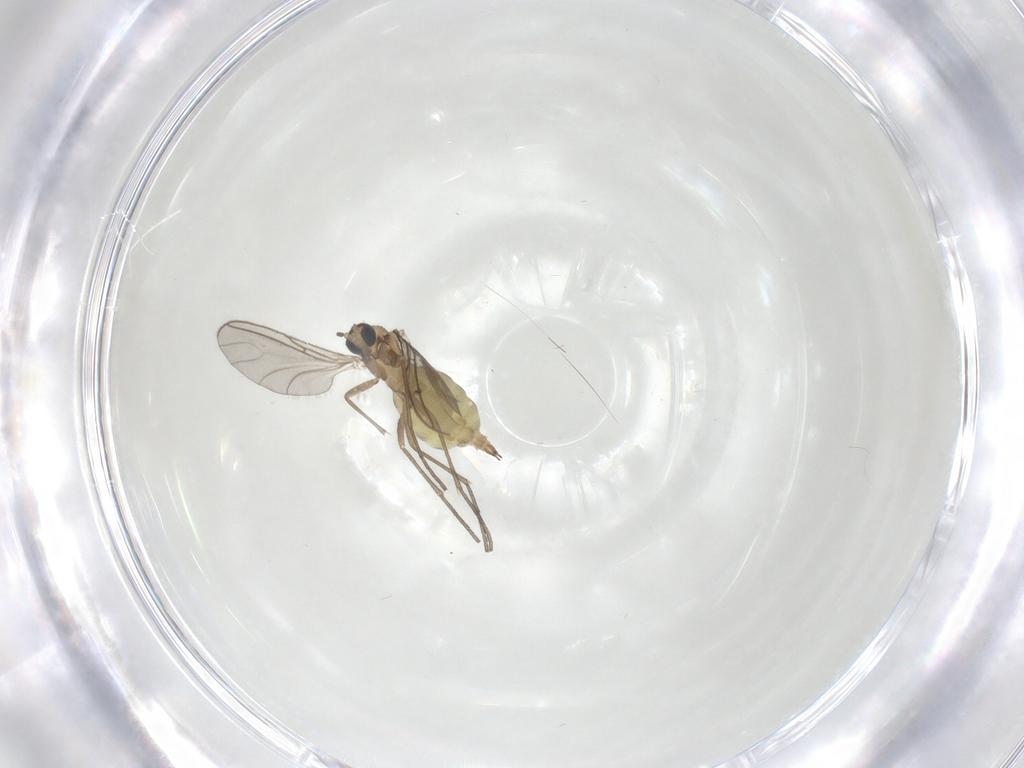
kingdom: Animalia
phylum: Arthropoda
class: Insecta
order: Diptera
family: Sciaridae
